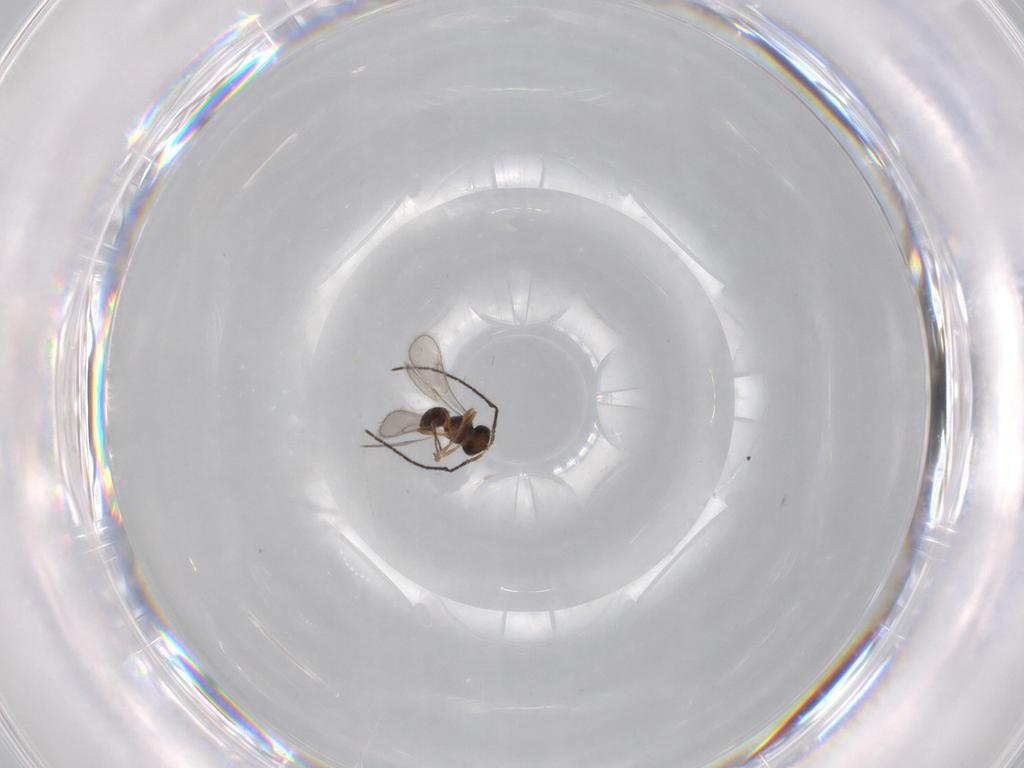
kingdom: Animalia
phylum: Arthropoda
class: Insecta
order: Hymenoptera
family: Scelionidae
